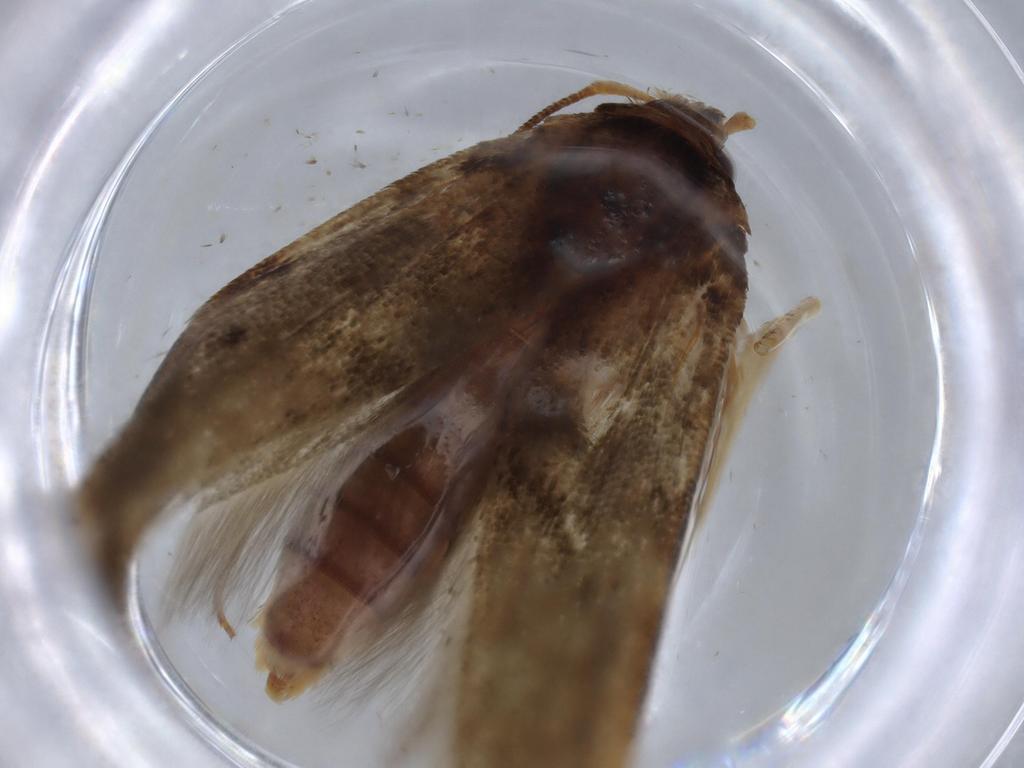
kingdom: Animalia
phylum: Arthropoda
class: Insecta
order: Lepidoptera
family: Blastobasidae
